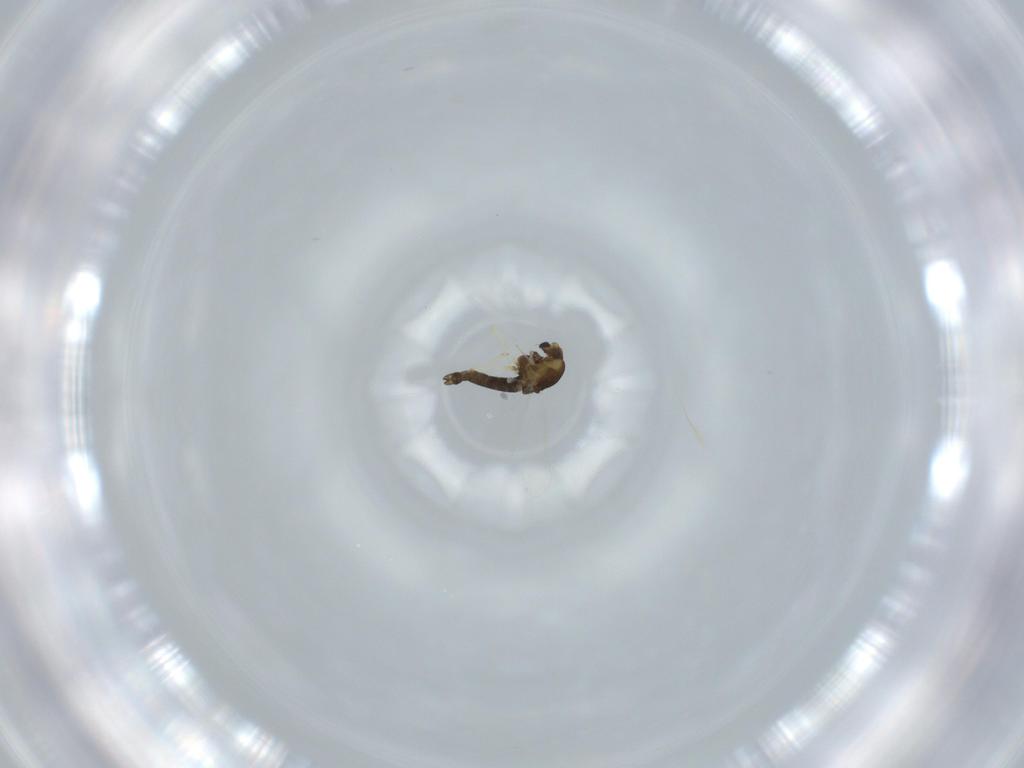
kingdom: Animalia
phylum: Arthropoda
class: Insecta
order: Diptera
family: Chironomidae
